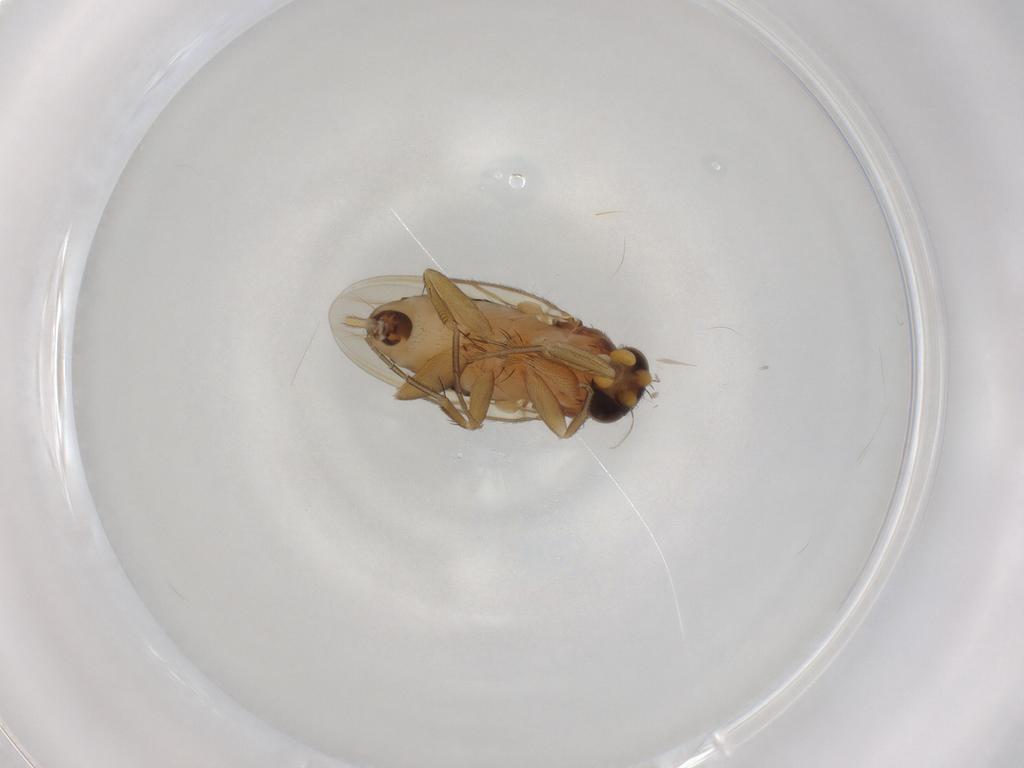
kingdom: Animalia
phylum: Arthropoda
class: Insecta
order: Diptera
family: Phoridae
